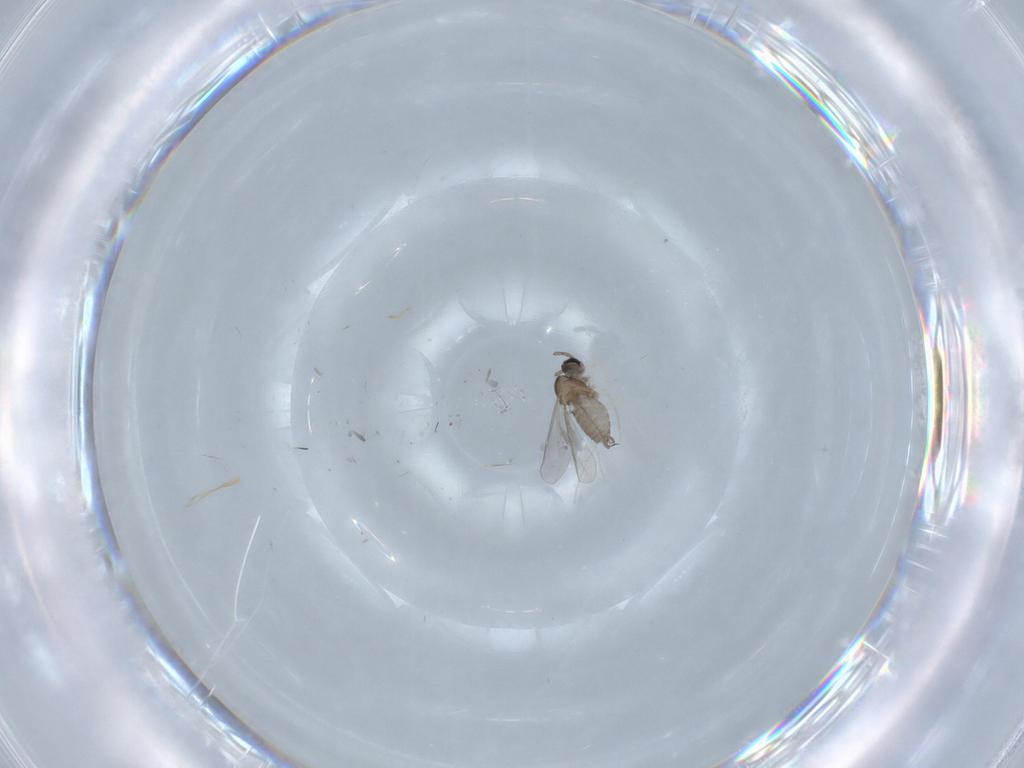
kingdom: Animalia
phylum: Arthropoda
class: Insecta
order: Diptera
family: Cecidomyiidae
